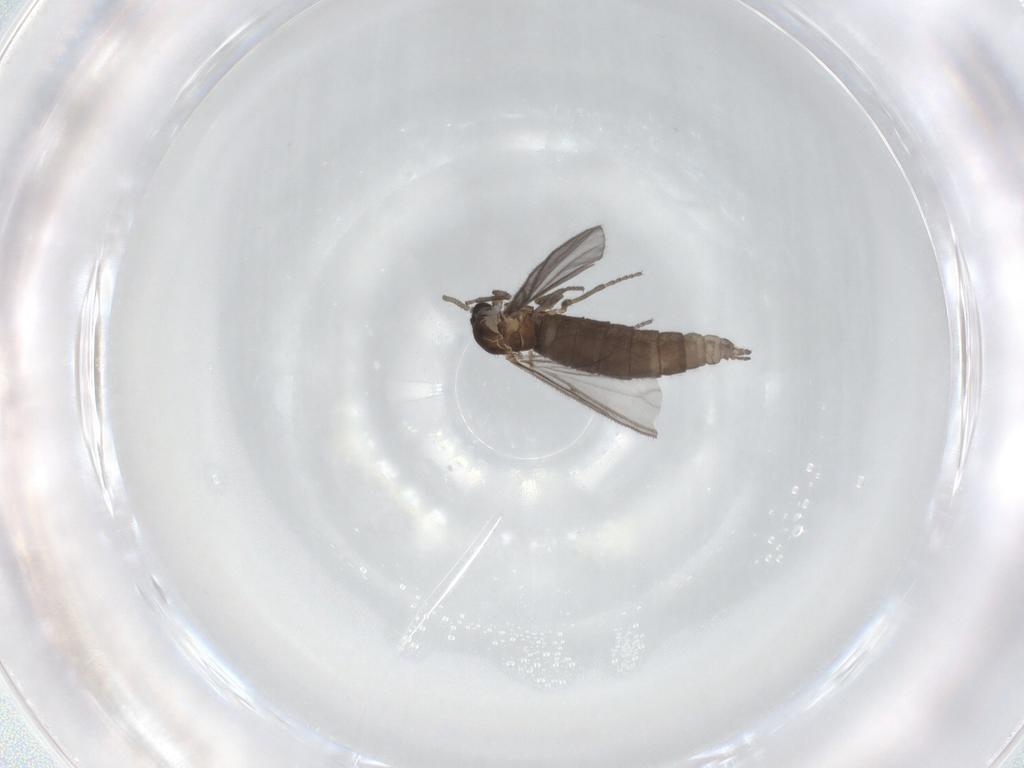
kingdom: Animalia
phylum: Arthropoda
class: Insecta
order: Diptera
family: Sciaridae
